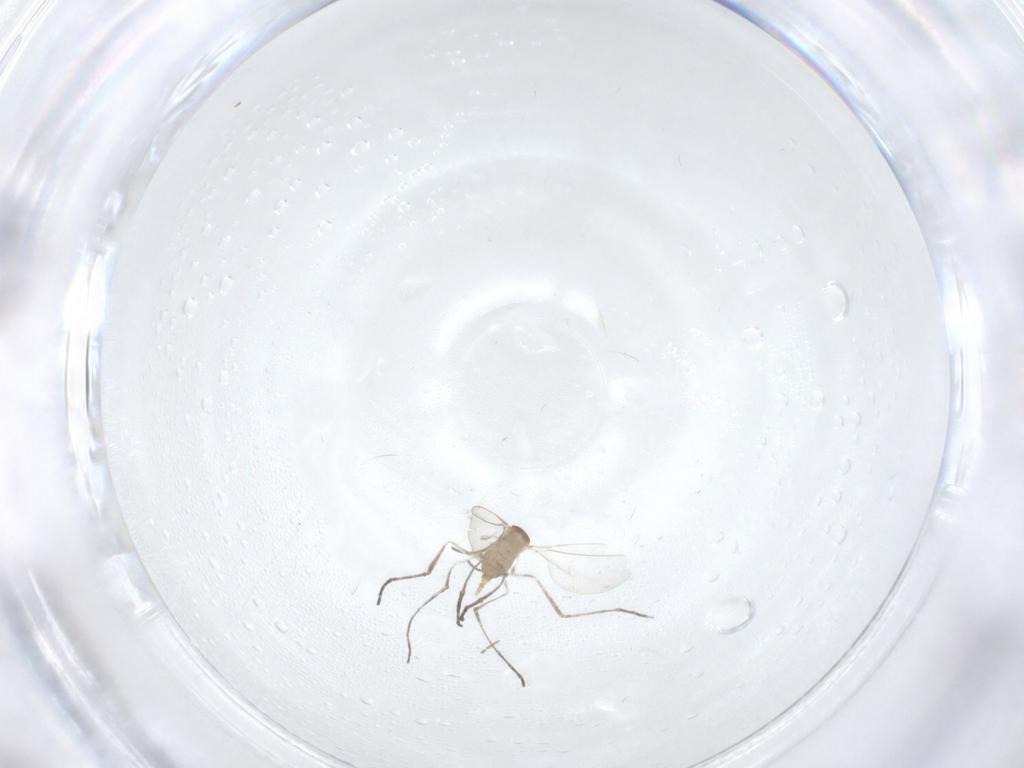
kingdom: Animalia
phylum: Arthropoda
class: Insecta
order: Diptera
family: Cecidomyiidae
